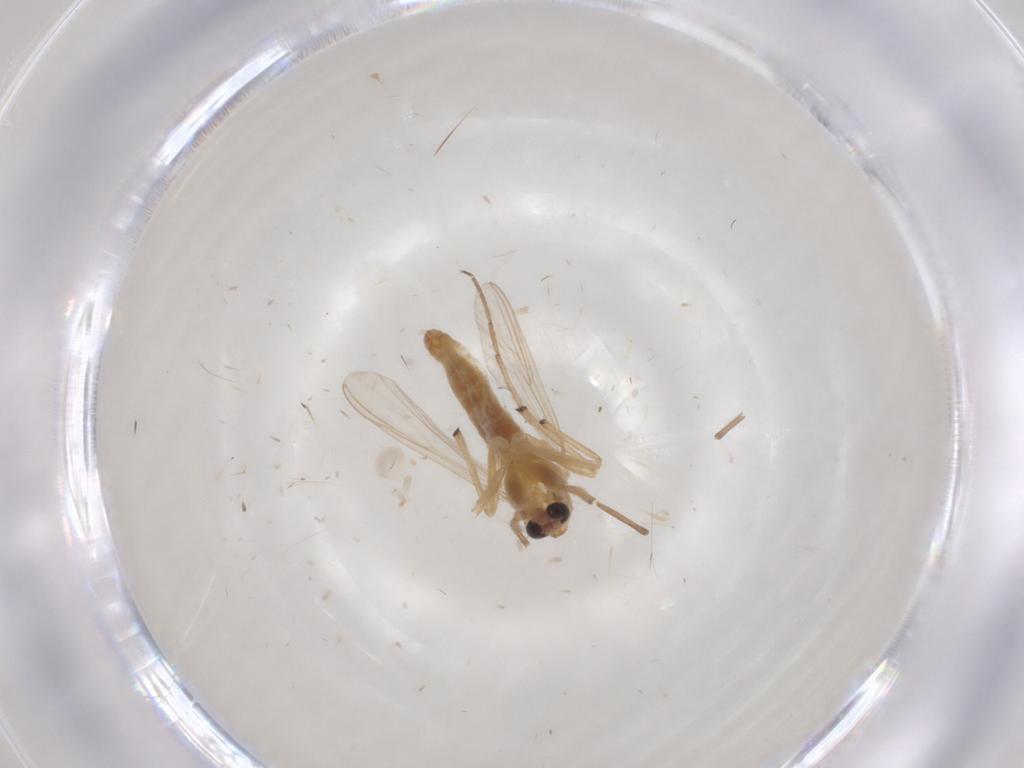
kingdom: Animalia
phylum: Arthropoda
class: Insecta
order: Diptera
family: Chironomidae
